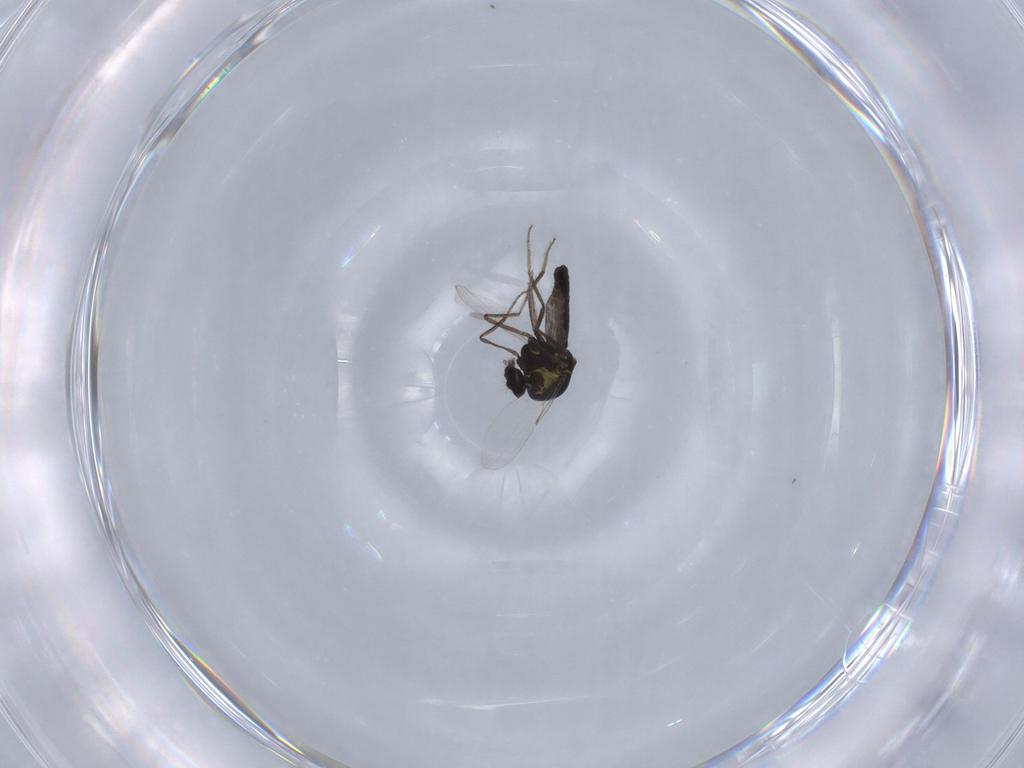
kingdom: Animalia
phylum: Arthropoda
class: Insecta
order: Diptera
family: Ceratopogonidae
